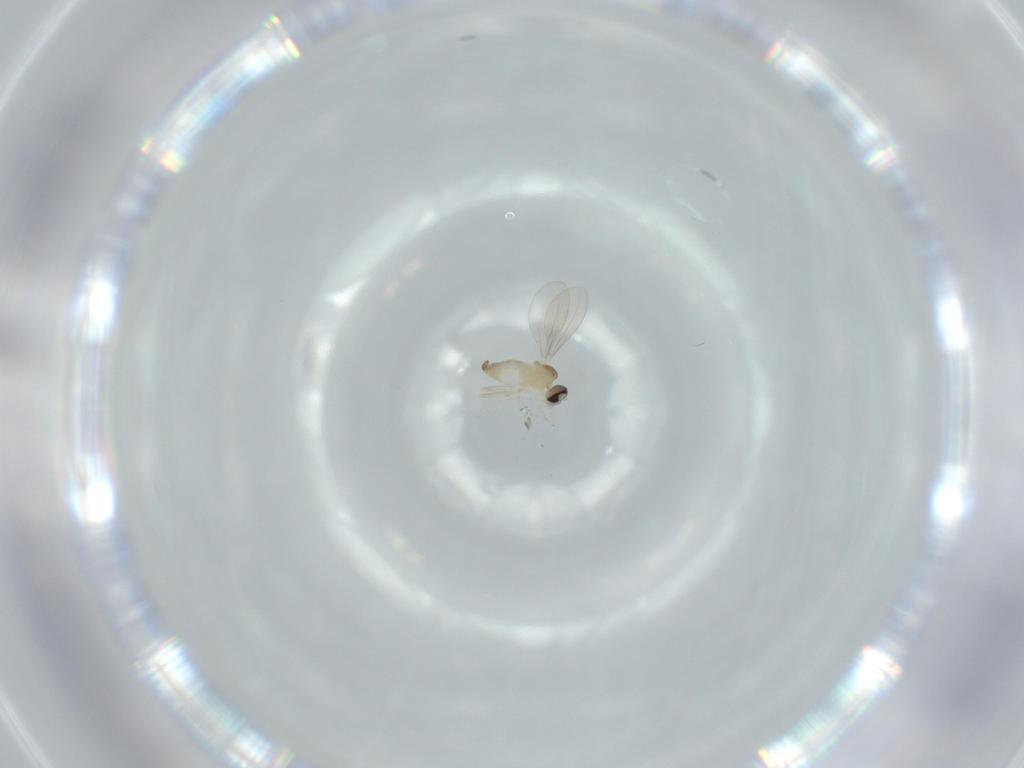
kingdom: Animalia
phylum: Arthropoda
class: Insecta
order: Diptera
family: Cecidomyiidae
